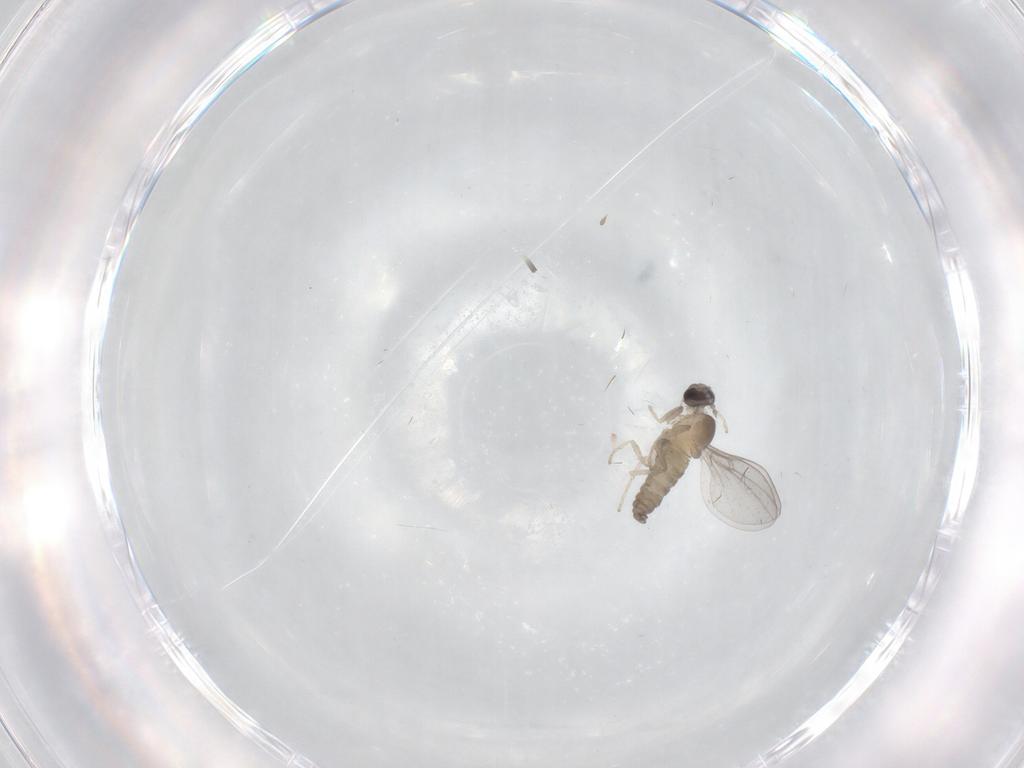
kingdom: Animalia
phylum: Arthropoda
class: Insecta
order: Diptera
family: Cecidomyiidae
